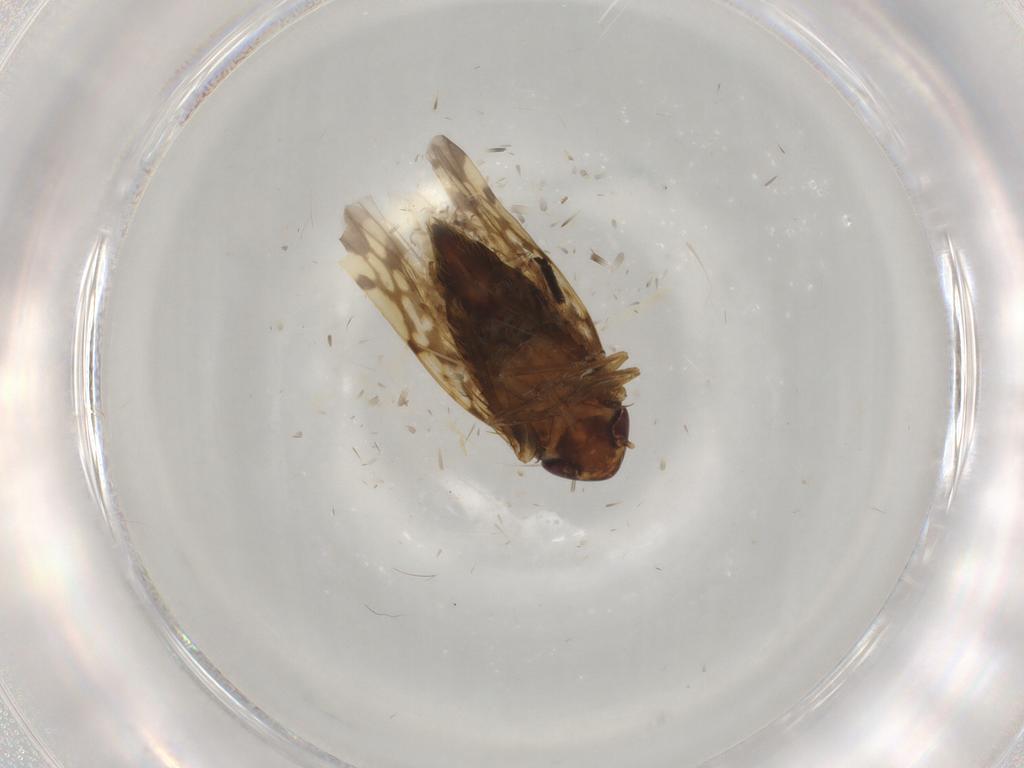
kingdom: Animalia
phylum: Arthropoda
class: Insecta
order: Hemiptera
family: Cicadellidae
